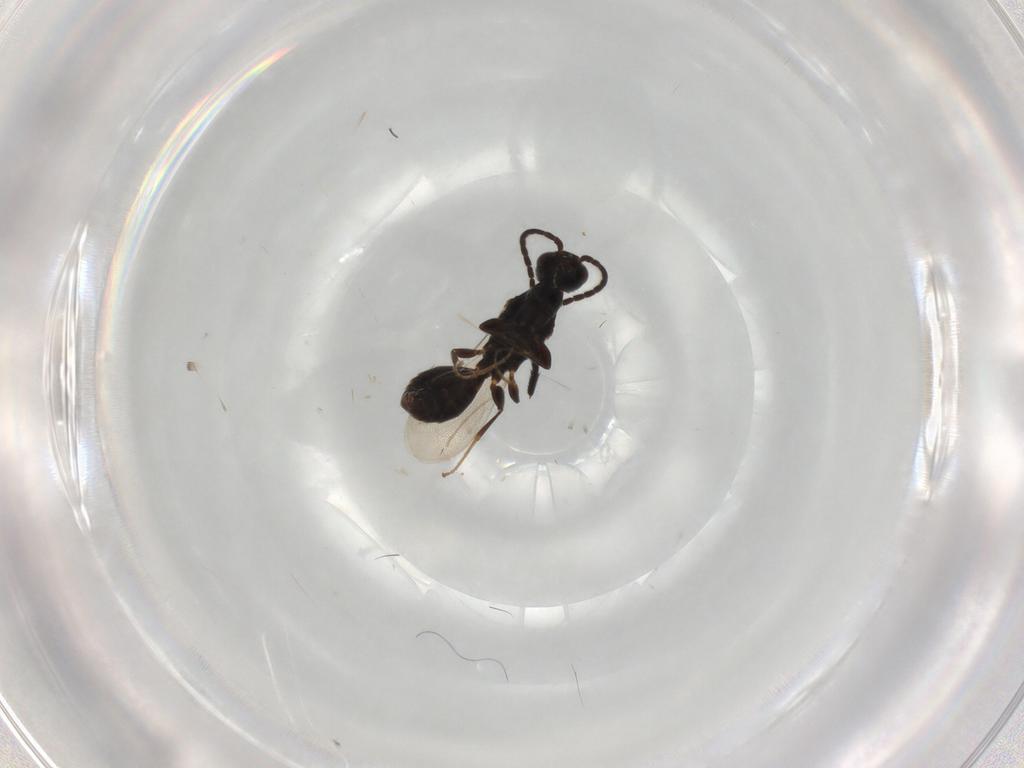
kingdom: Animalia
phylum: Arthropoda
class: Insecta
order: Hymenoptera
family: Bethylidae
